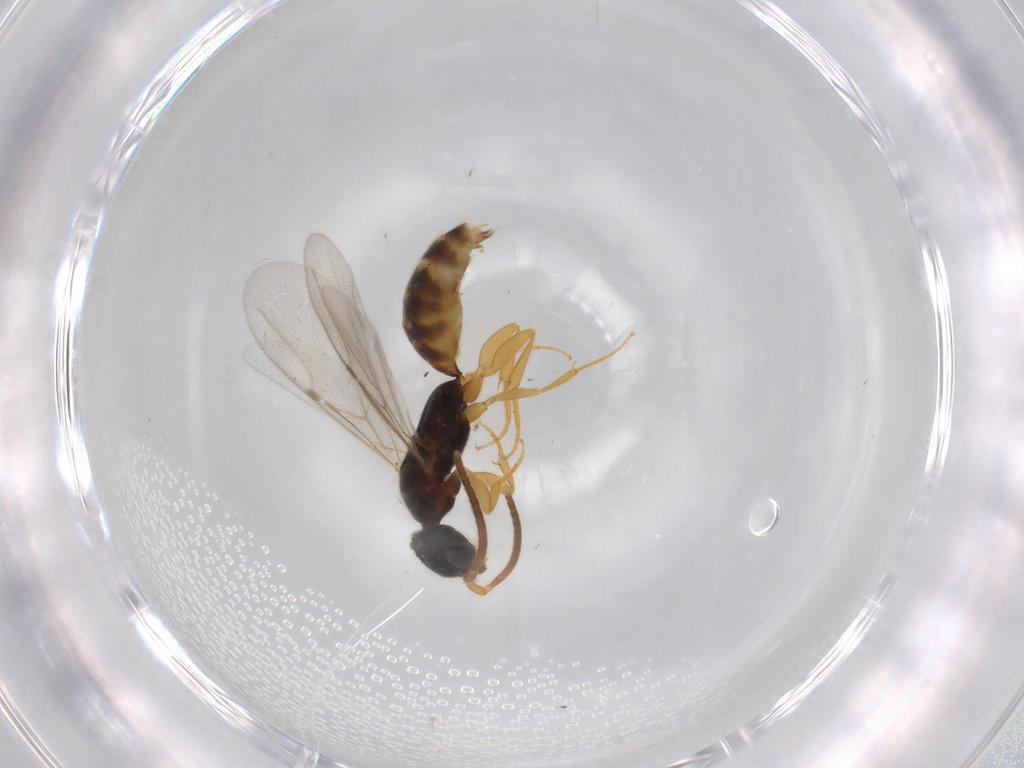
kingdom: Animalia
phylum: Arthropoda
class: Insecta
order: Hymenoptera
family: Bethylidae
